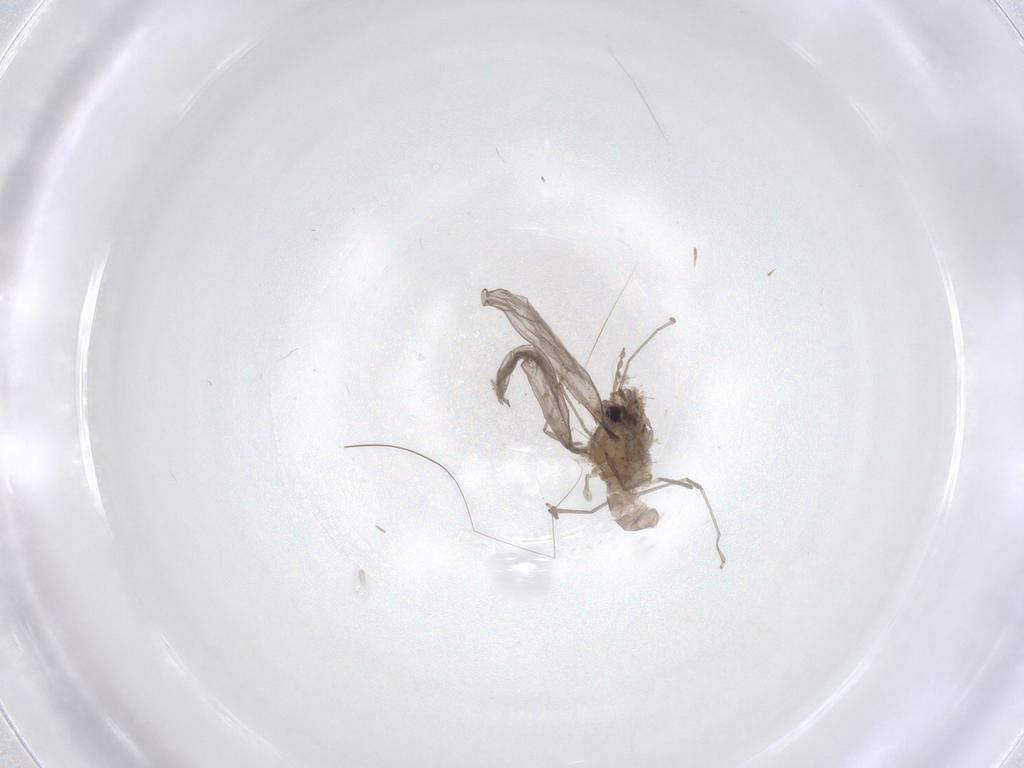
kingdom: Animalia
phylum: Arthropoda
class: Insecta
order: Diptera
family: Cecidomyiidae
